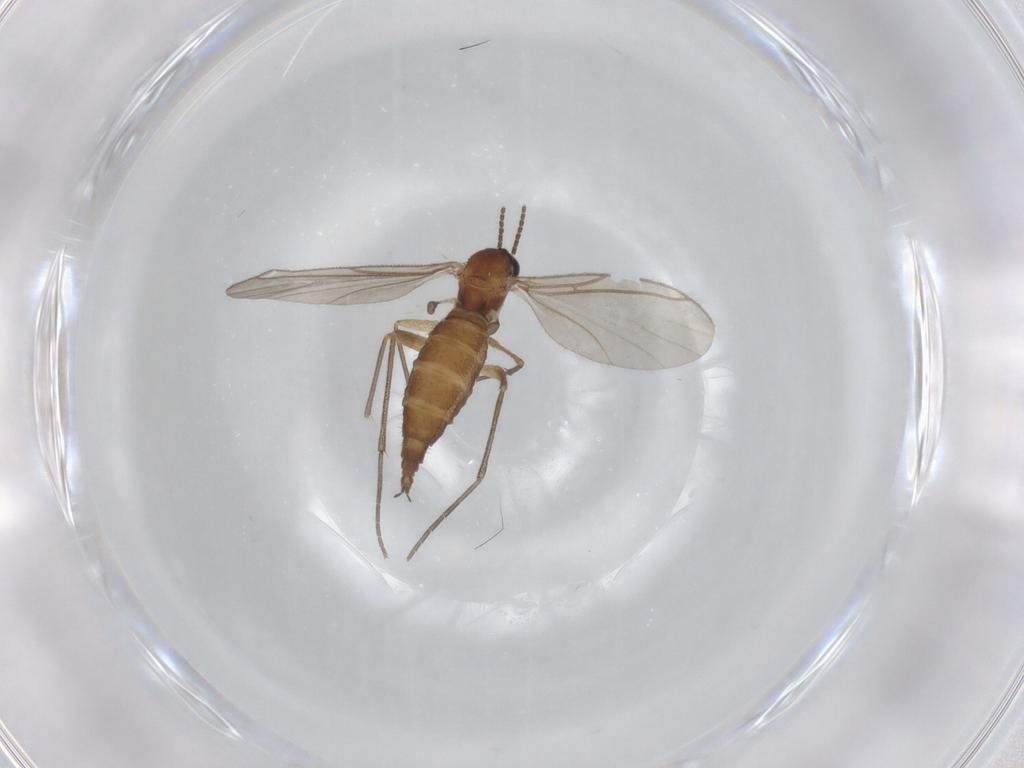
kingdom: Animalia
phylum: Arthropoda
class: Insecta
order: Diptera
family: Sciaridae
